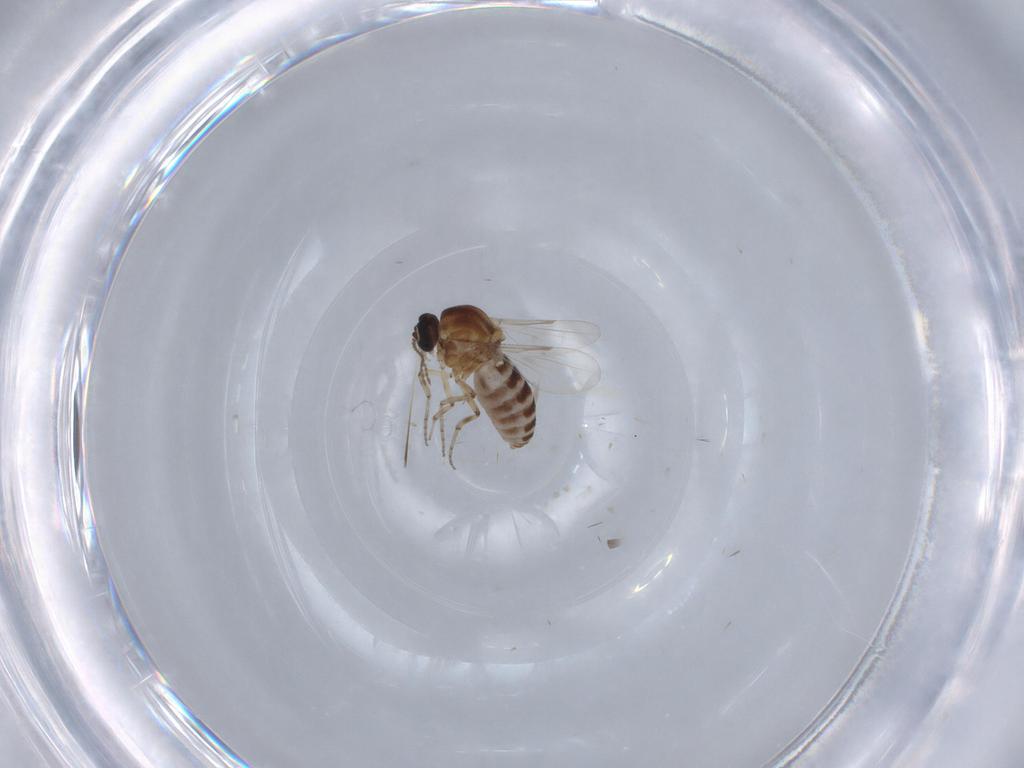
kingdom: Animalia
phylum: Arthropoda
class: Insecta
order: Diptera
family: Ceratopogonidae
